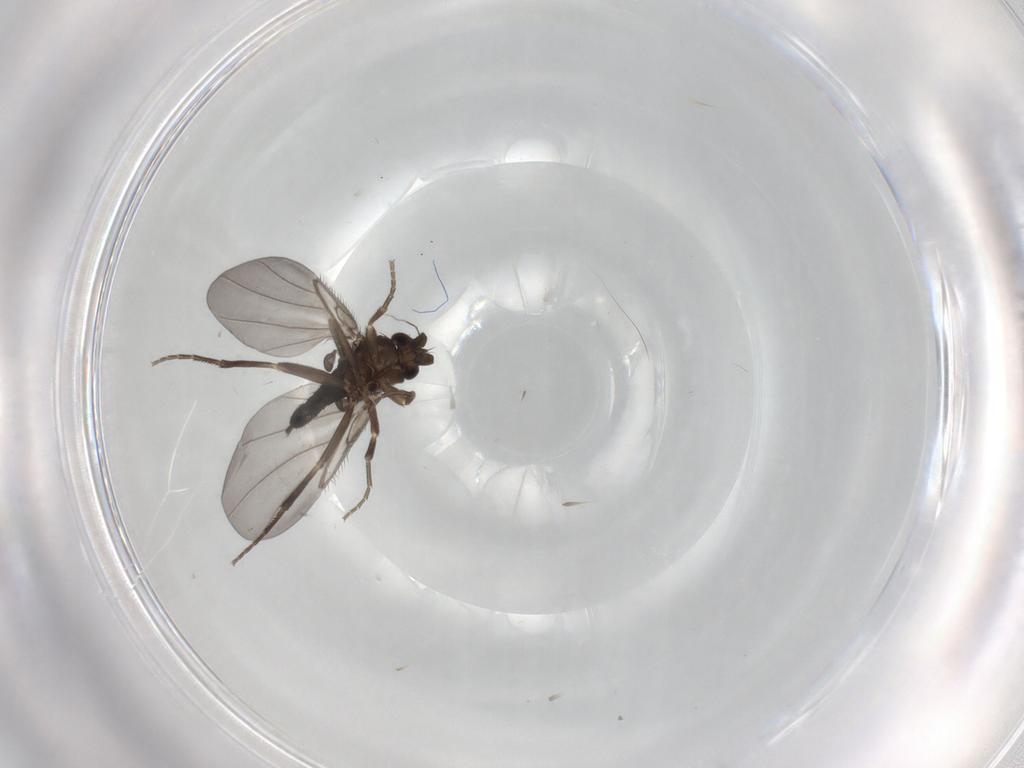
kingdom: Animalia
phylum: Arthropoda
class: Insecta
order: Diptera
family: Phoridae
